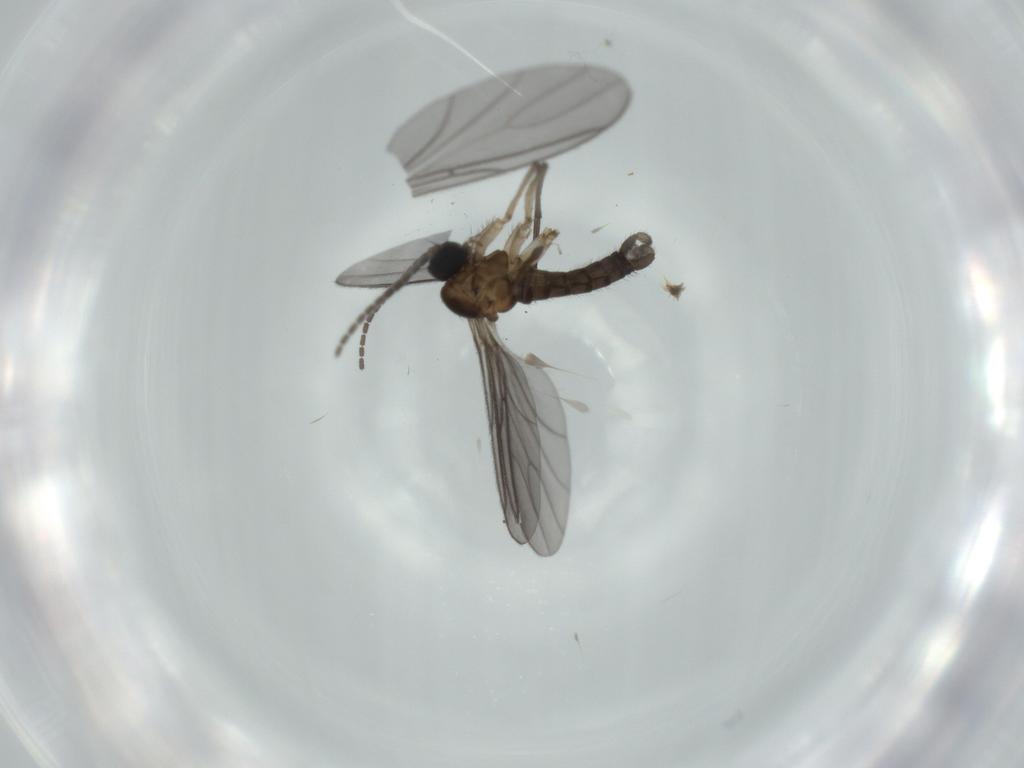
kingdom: Animalia
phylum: Arthropoda
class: Insecta
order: Diptera
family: Sciaridae
